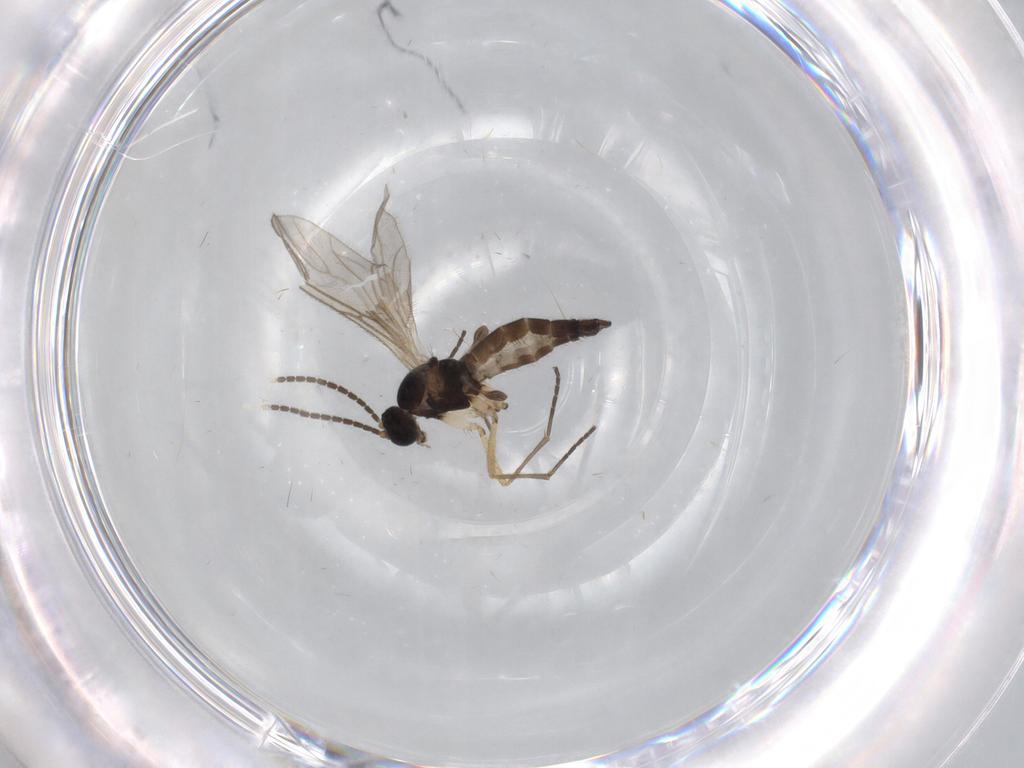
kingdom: Animalia
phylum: Arthropoda
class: Insecta
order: Diptera
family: Sciaridae
